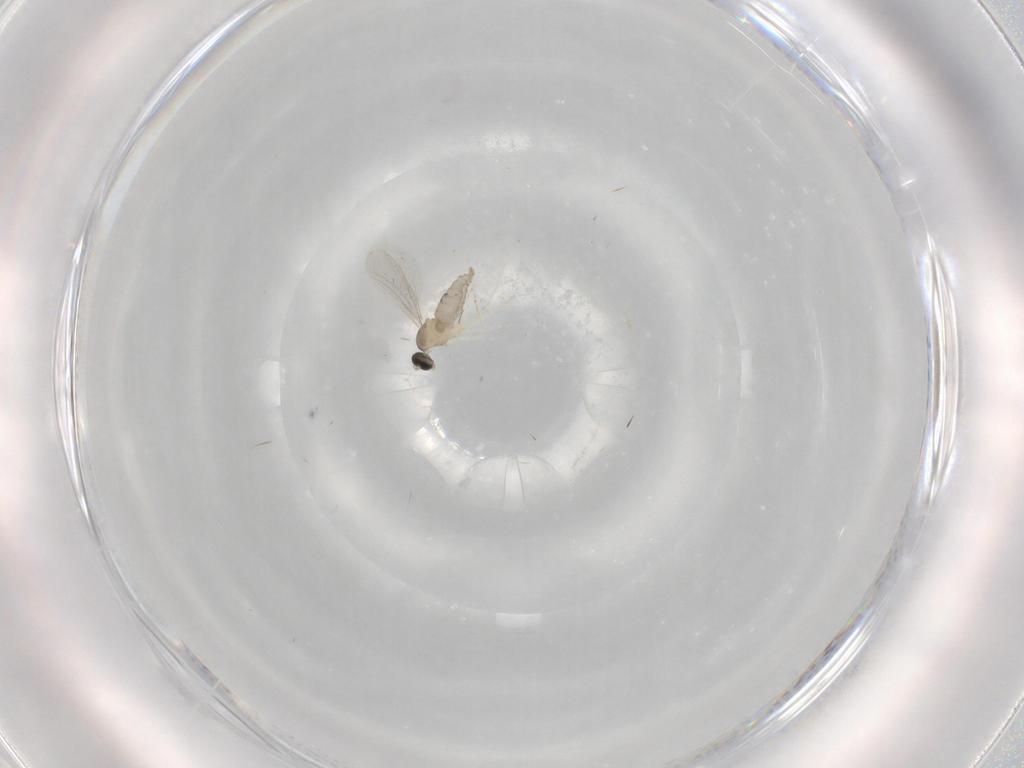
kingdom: Animalia
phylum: Arthropoda
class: Insecta
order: Diptera
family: Cecidomyiidae
